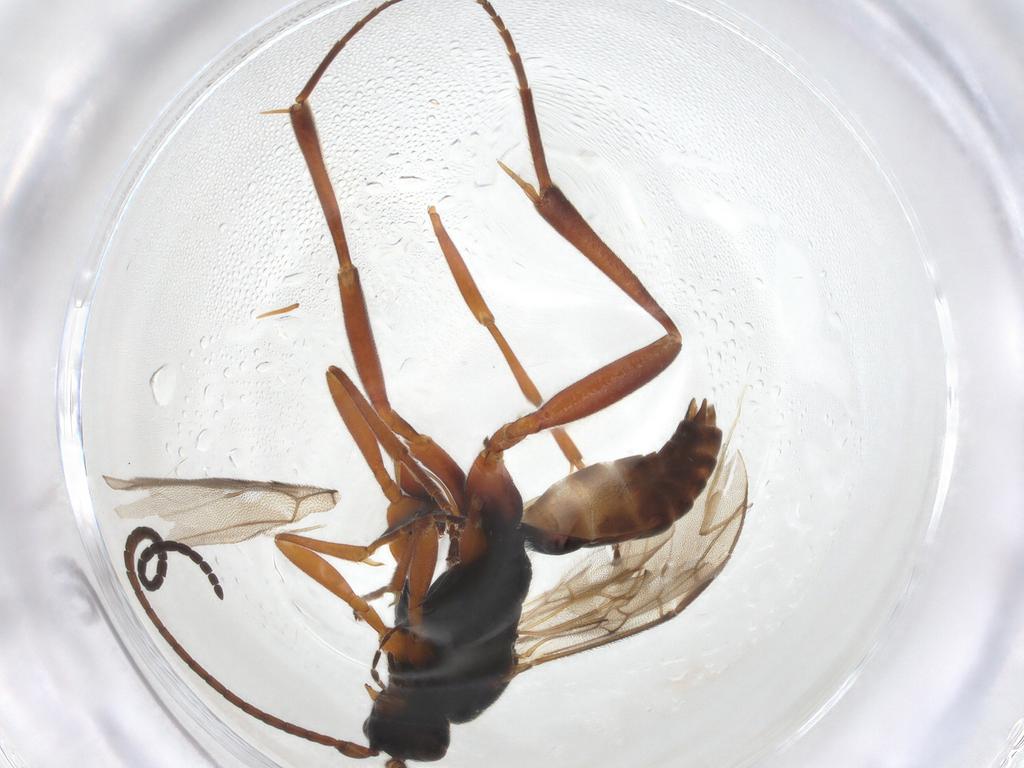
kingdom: Animalia
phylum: Arthropoda
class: Insecta
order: Hymenoptera
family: Braconidae
